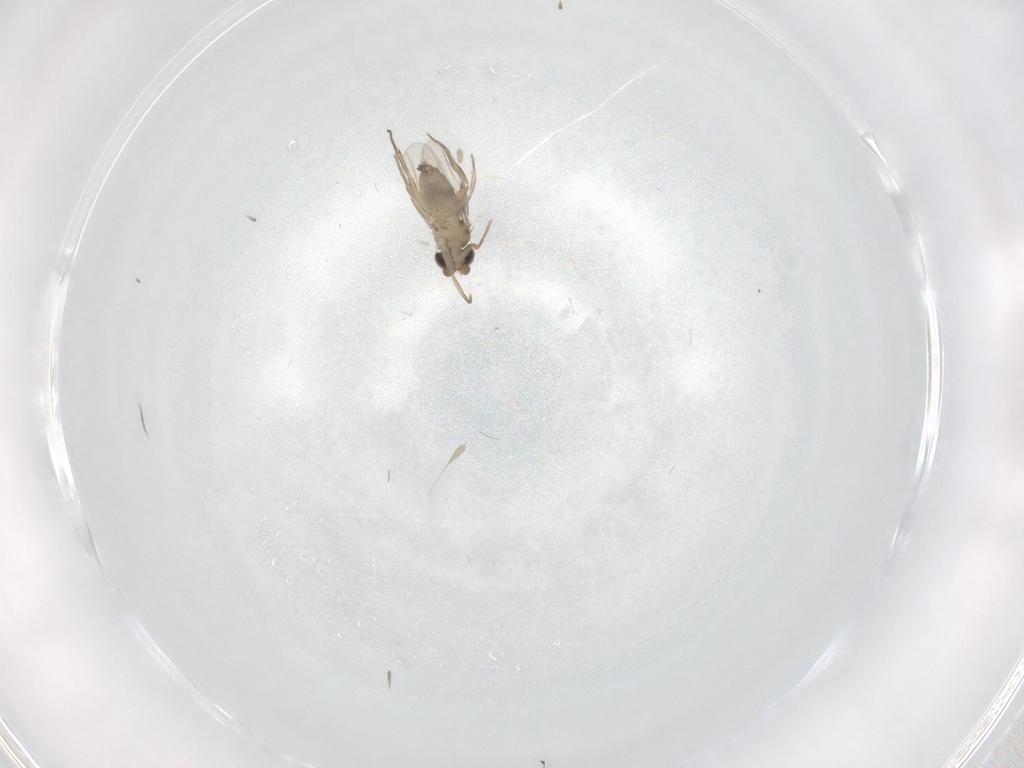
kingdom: Animalia
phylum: Arthropoda
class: Insecta
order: Diptera
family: Phoridae
